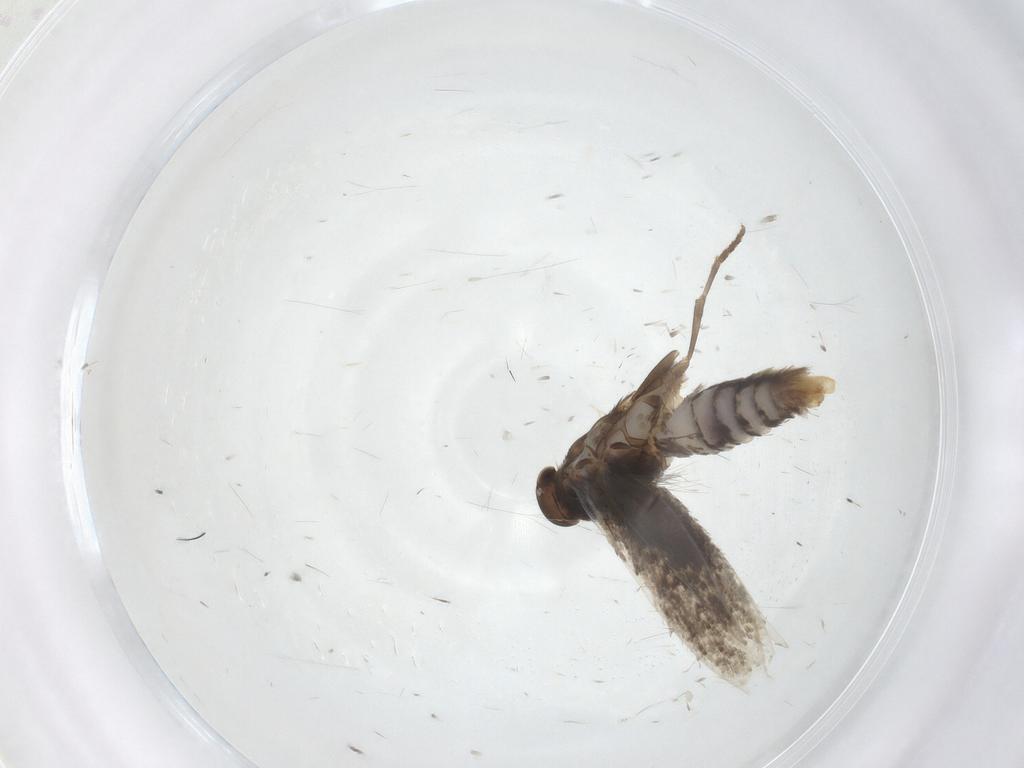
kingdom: Animalia
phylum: Arthropoda
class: Insecta
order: Lepidoptera
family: Elachistidae
